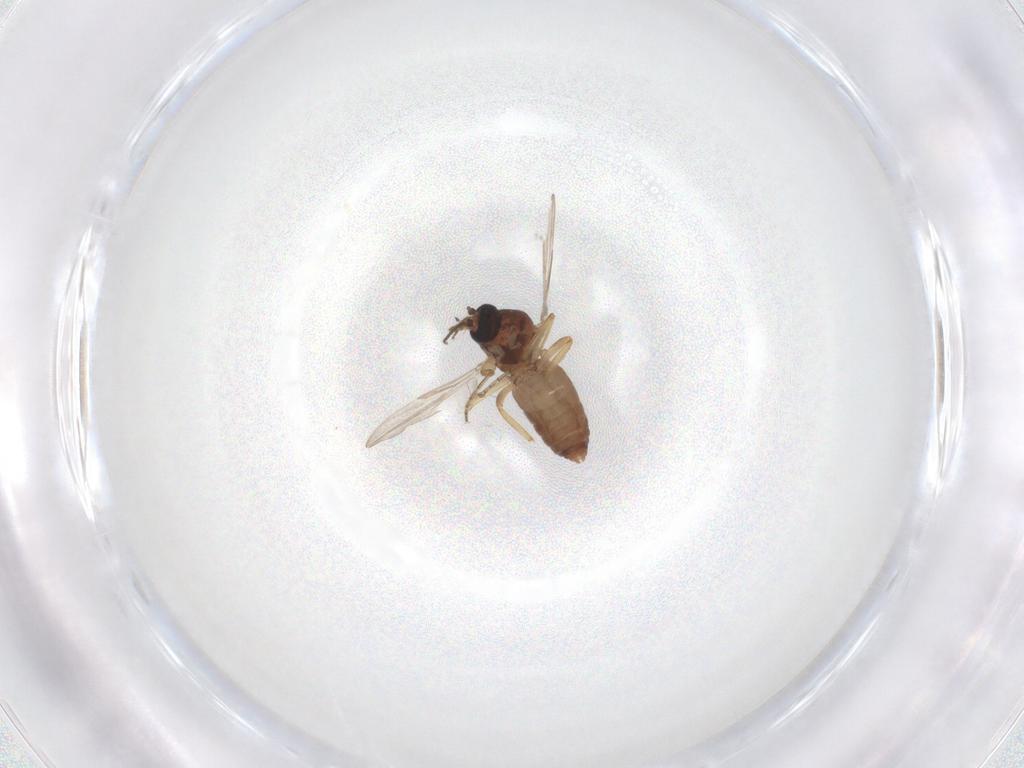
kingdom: Animalia
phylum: Arthropoda
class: Insecta
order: Diptera
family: Ceratopogonidae
